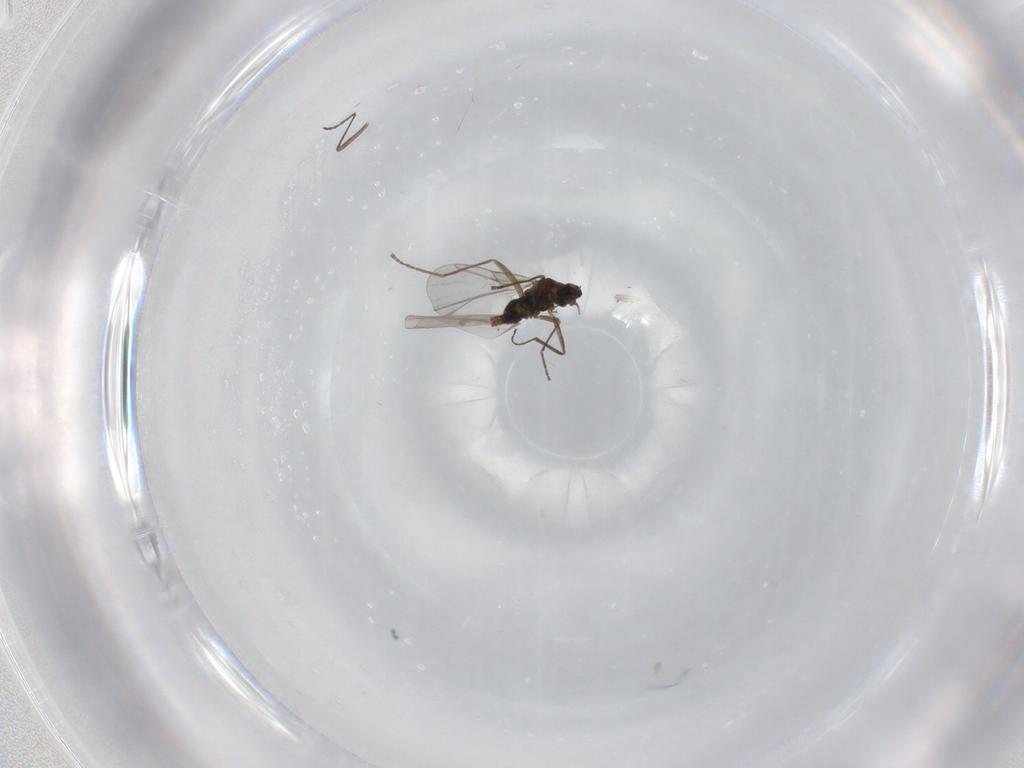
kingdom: Animalia
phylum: Arthropoda
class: Insecta
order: Diptera
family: Cecidomyiidae
